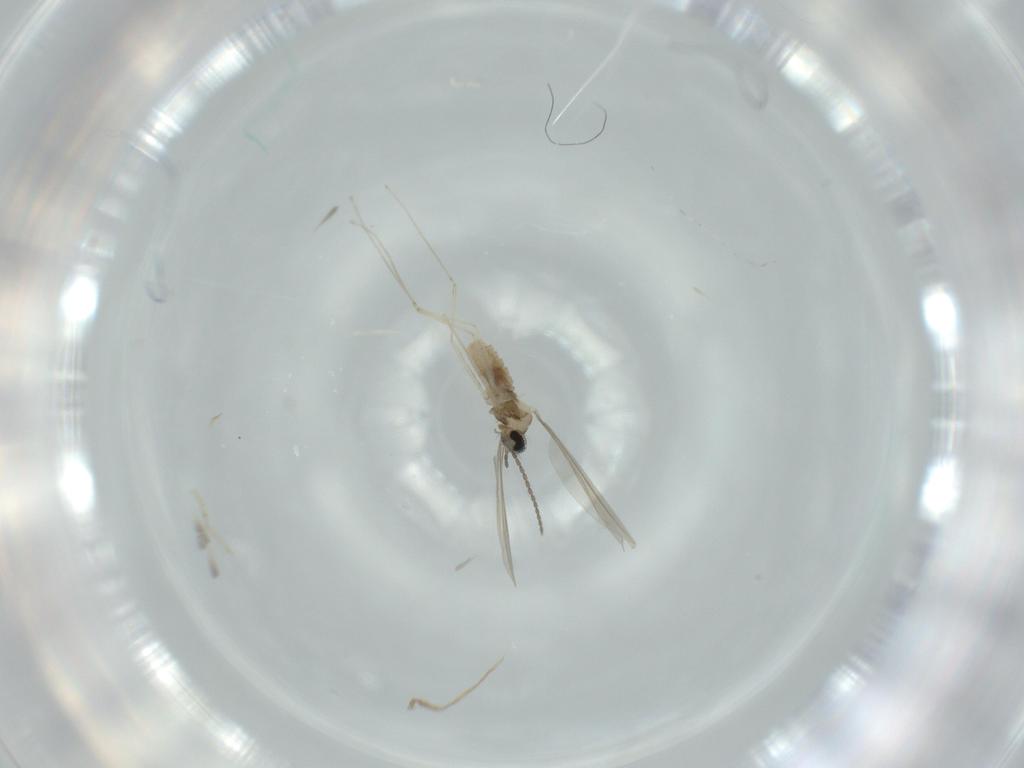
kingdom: Animalia
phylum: Arthropoda
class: Insecta
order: Diptera
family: Cecidomyiidae
